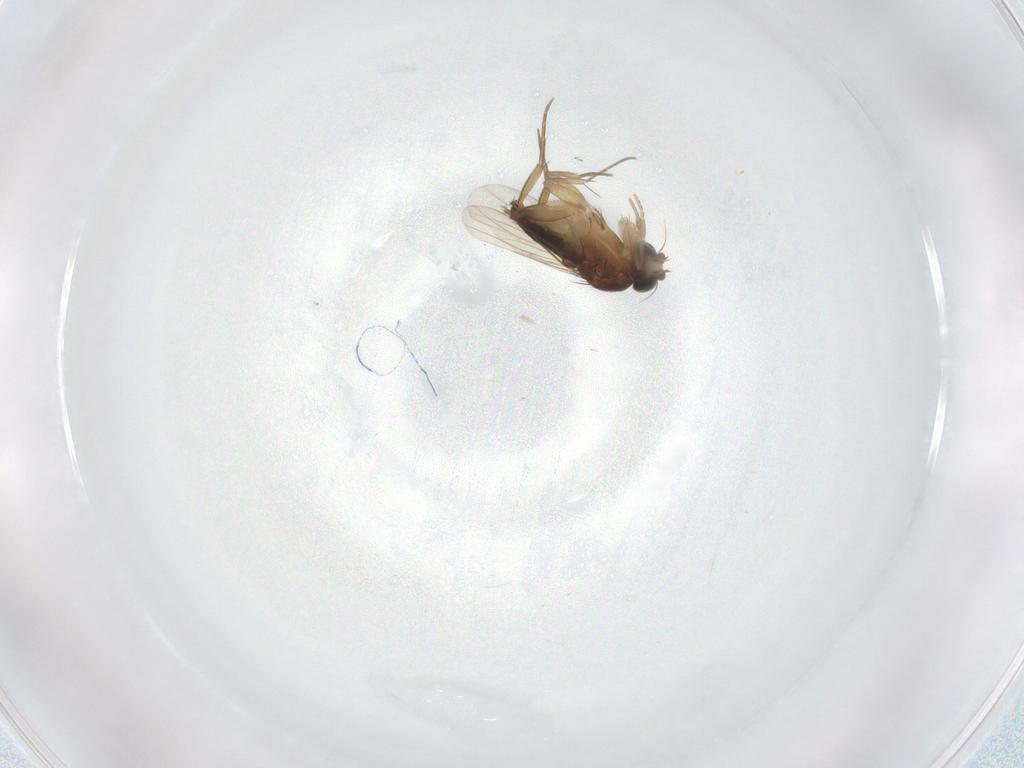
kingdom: Animalia
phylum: Arthropoda
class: Insecta
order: Diptera
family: Phoridae
